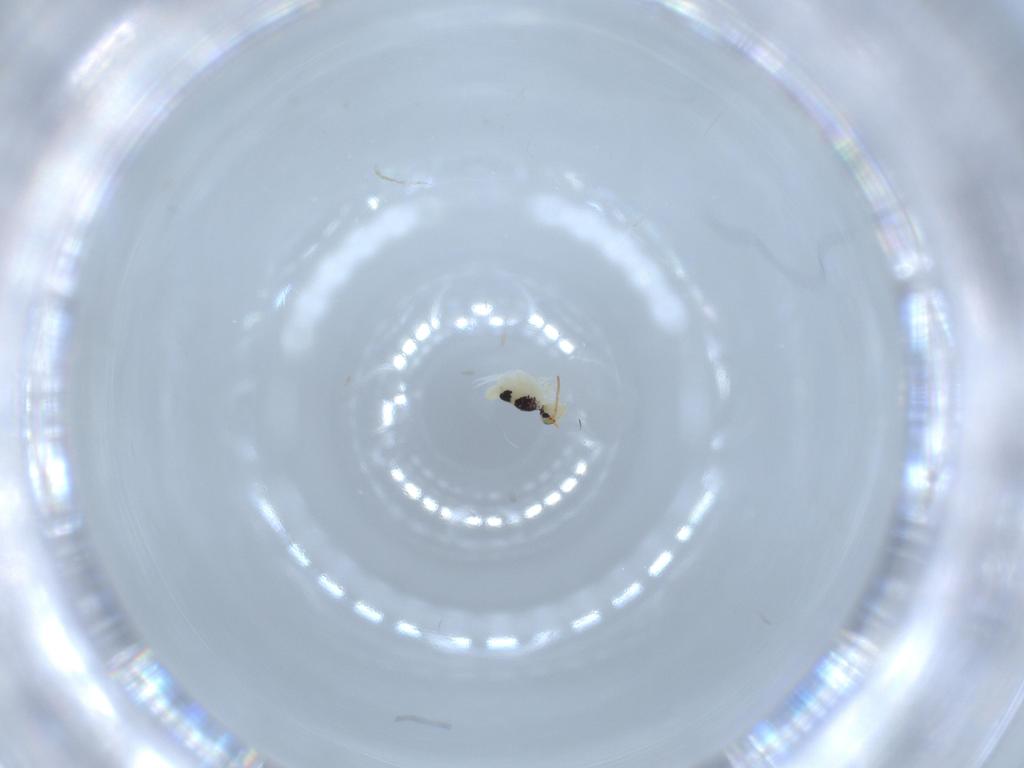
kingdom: Animalia
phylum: Arthropoda
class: Collembola
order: Symphypleona
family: Bourletiellidae
